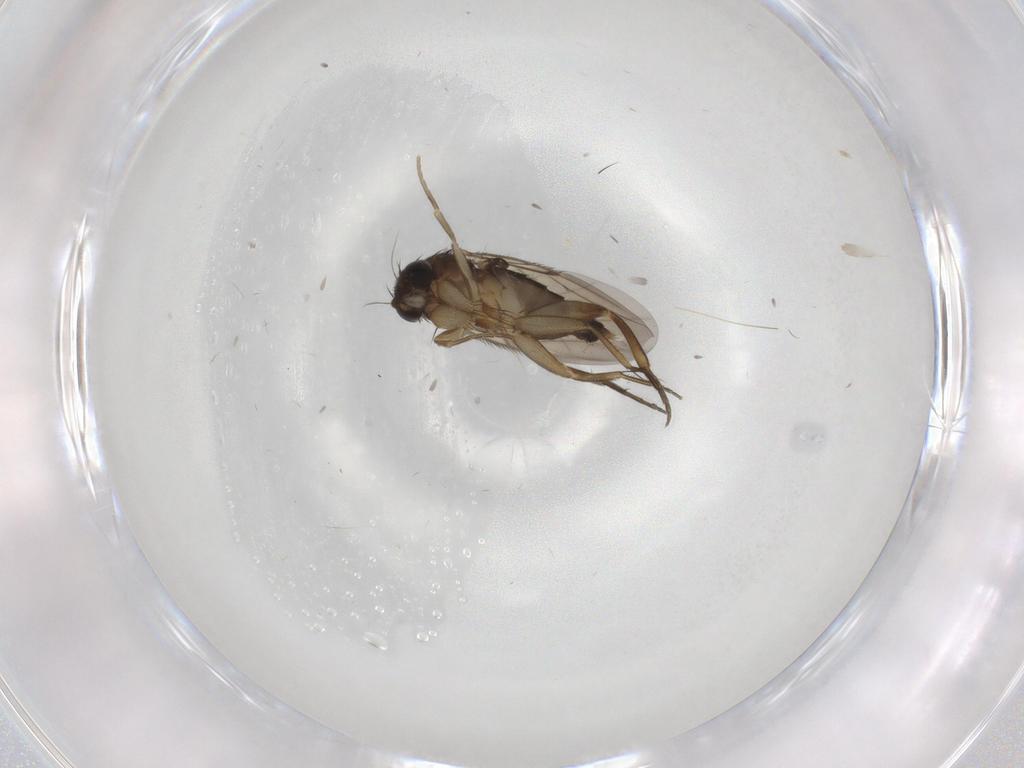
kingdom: Animalia
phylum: Arthropoda
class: Insecta
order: Diptera
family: Phoridae
